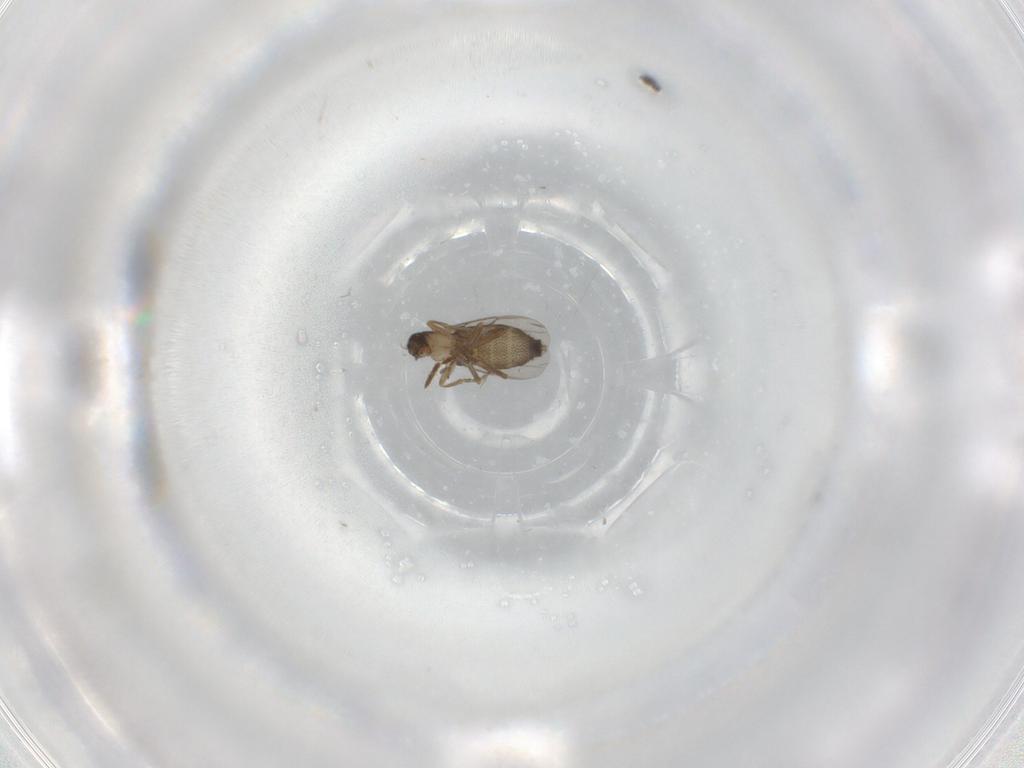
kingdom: Animalia
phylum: Arthropoda
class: Insecta
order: Diptera
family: Phoridae
